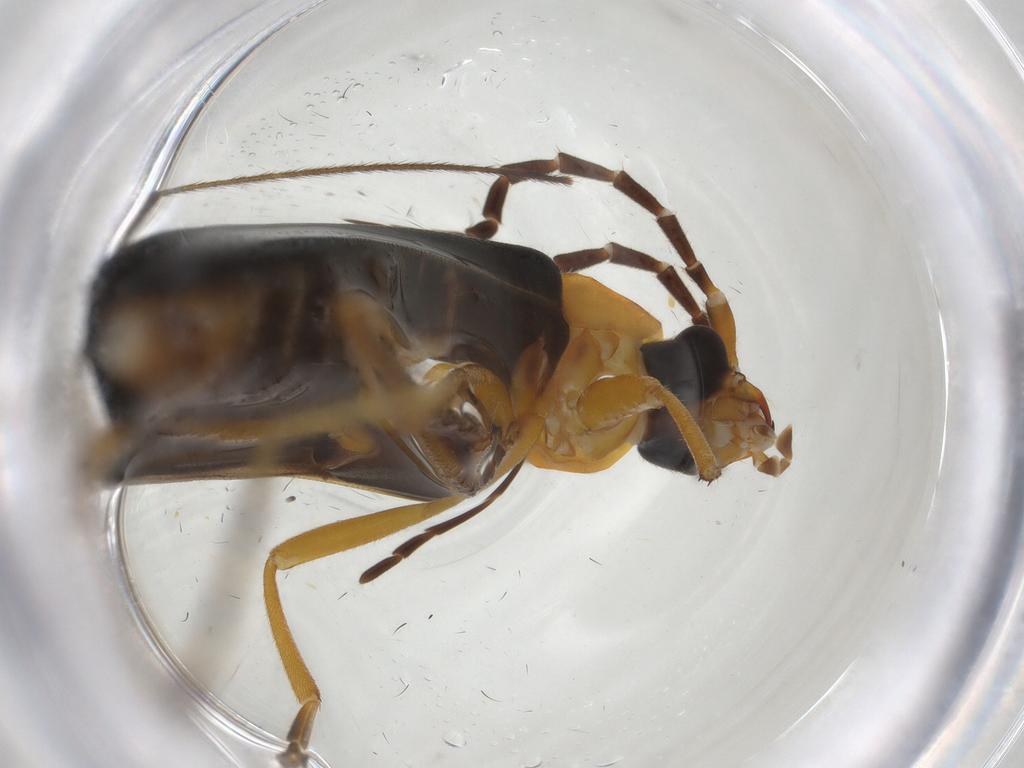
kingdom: Animalia
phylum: Arthropoda
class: Insecta
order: Coleoptera
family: Cantharidae
